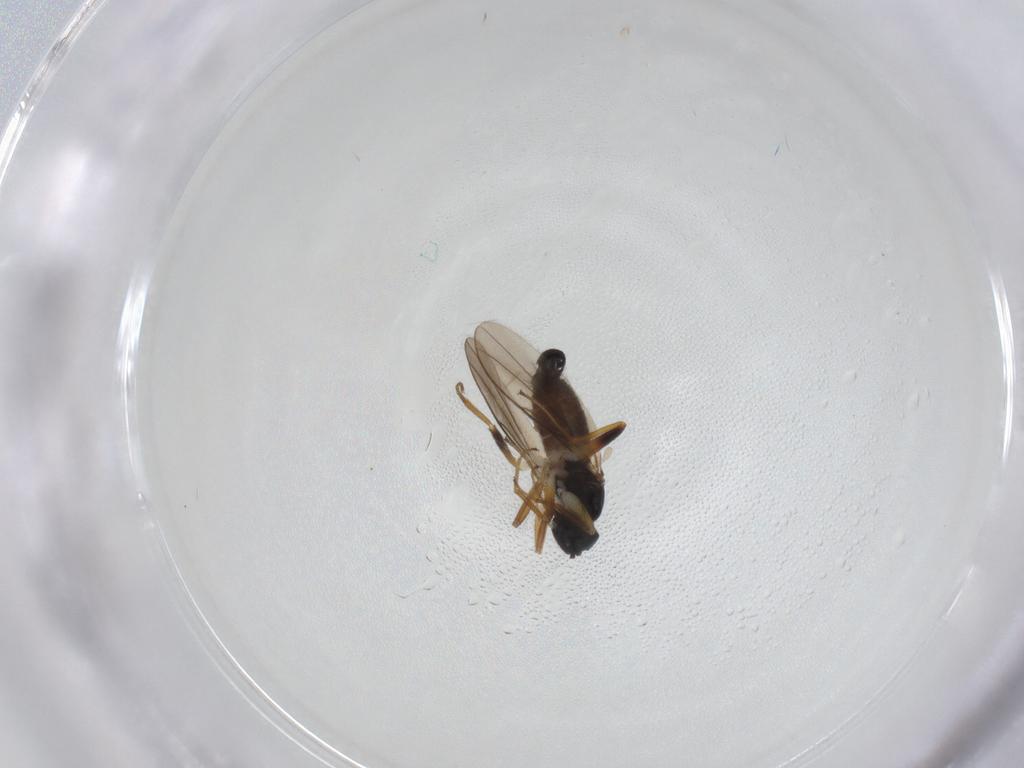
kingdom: Animalia
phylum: Arthropoda
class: Insecta
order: Diptera
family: Hybotidae
